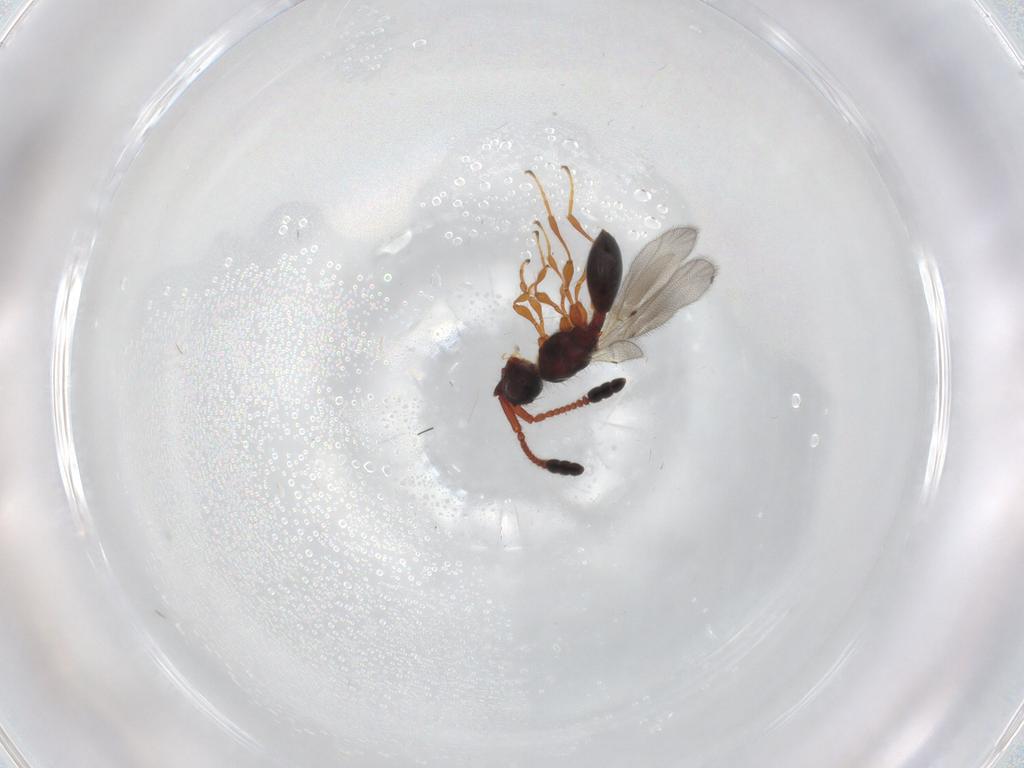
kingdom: Animalia
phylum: Arthropoda
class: Insecta
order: Hymenoptera
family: Diapriidae
